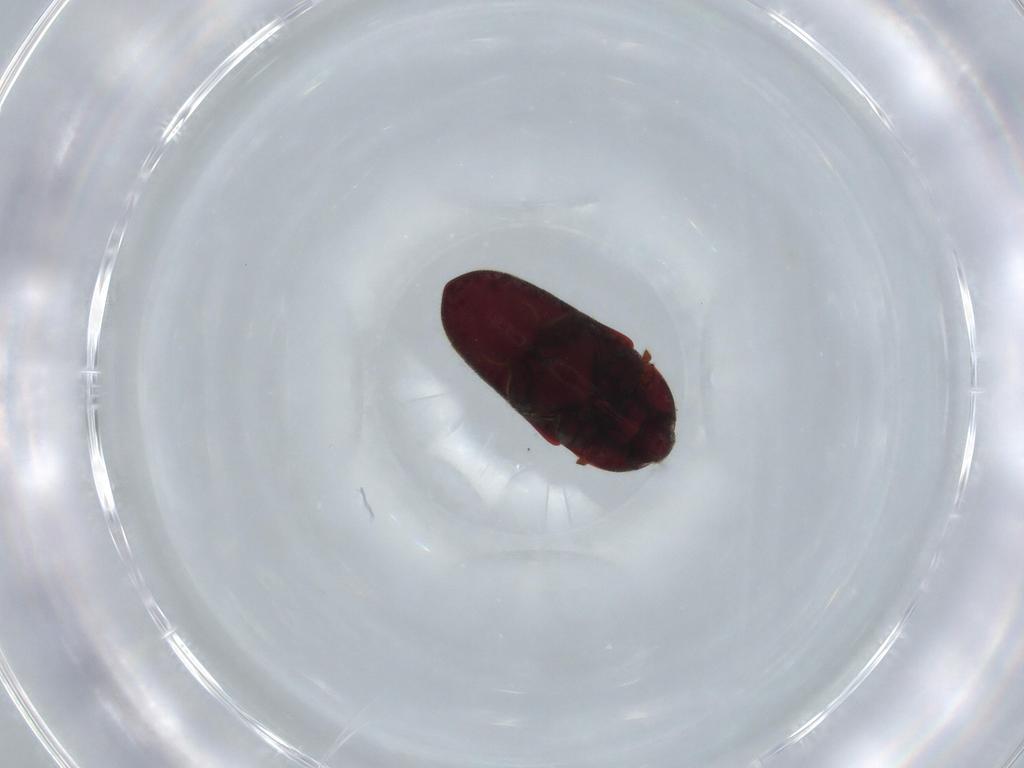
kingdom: Animalia
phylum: Arthropoda
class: Insecta
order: Coleoptera
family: Throscidae
